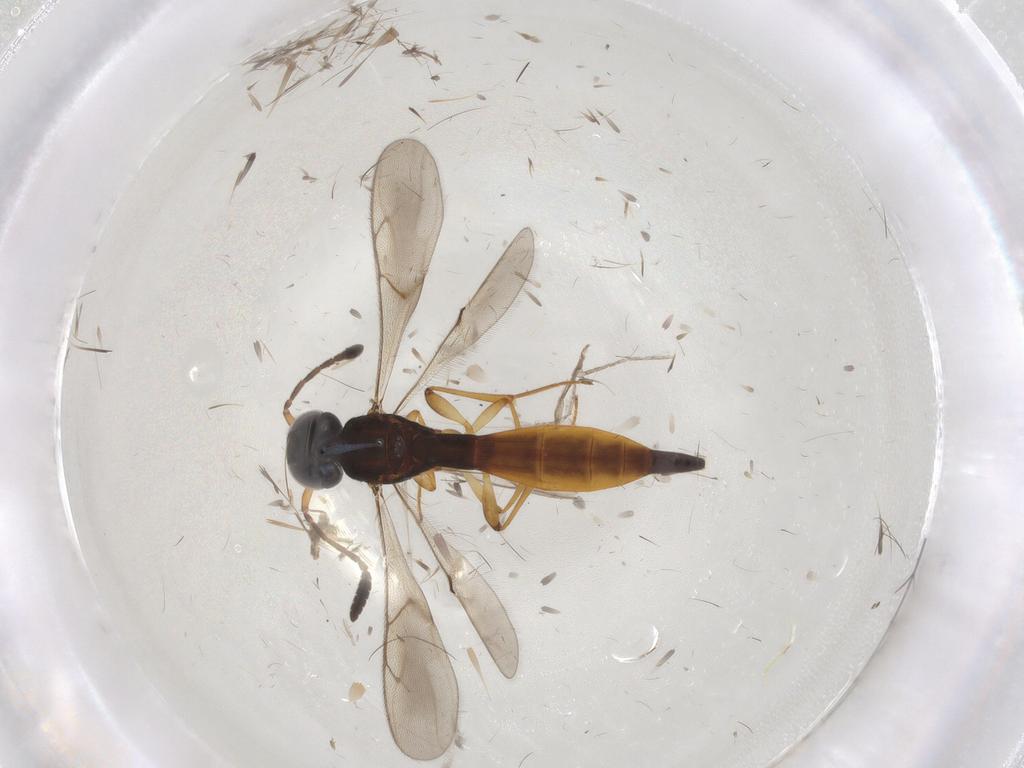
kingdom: Animalia
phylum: Arthropoda
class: Insecta
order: Hymenoptera
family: Scelionidae
